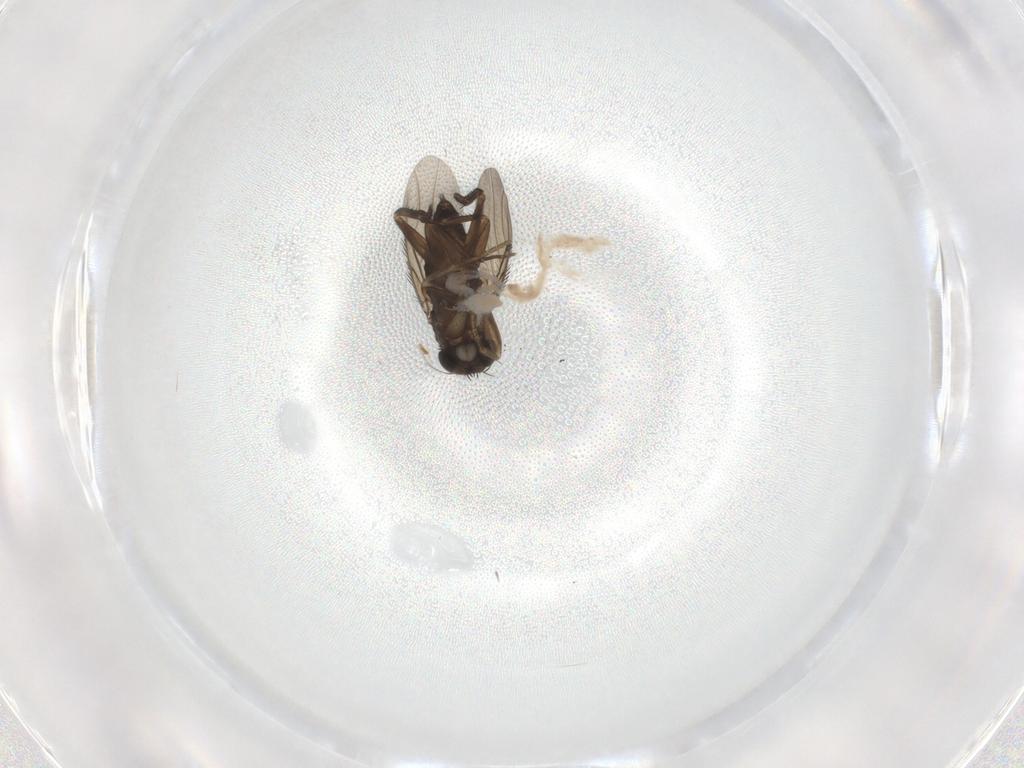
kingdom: Animalia
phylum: Arthropoda
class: Insecta
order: Diptera
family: Phoridae
